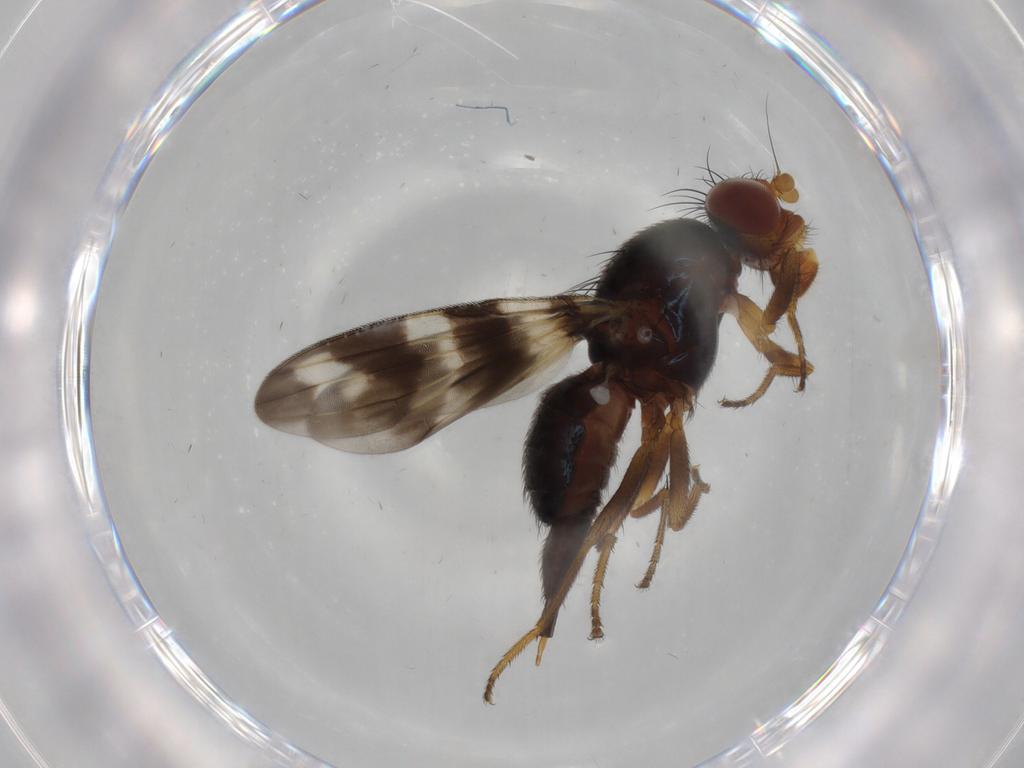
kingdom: Animalia
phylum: Arthropoda
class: Insecta
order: Diptera
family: Ulidiidae
